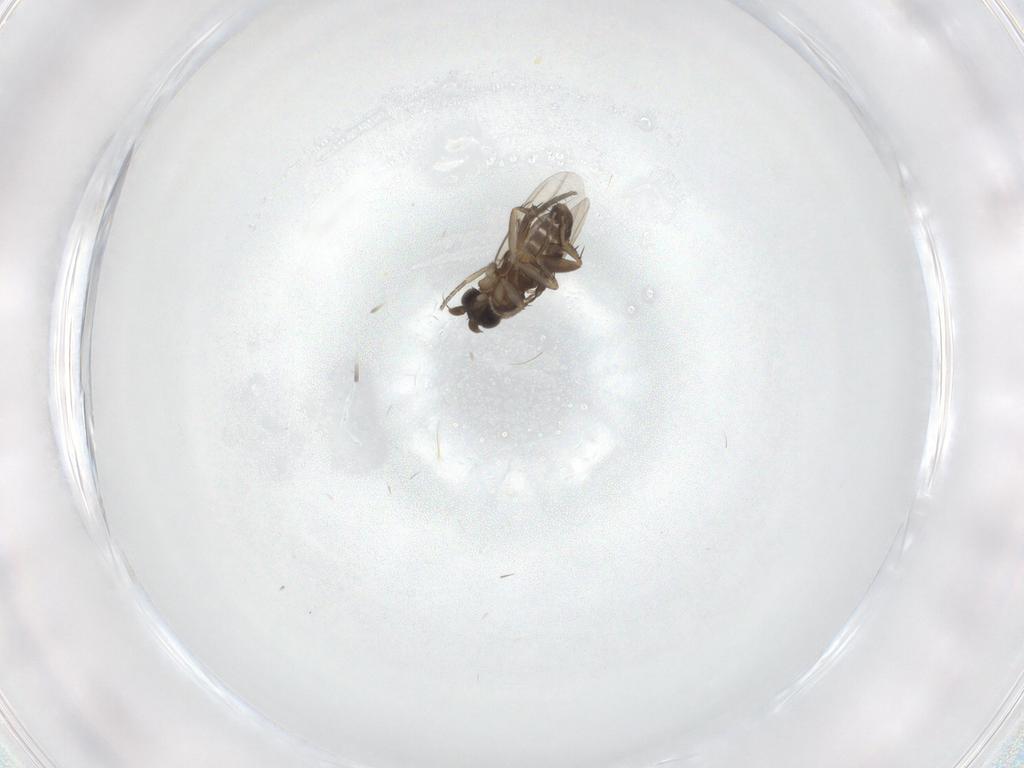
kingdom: Animalia
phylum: Arthropoda
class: Insecta
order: Diptera
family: Phoridae
